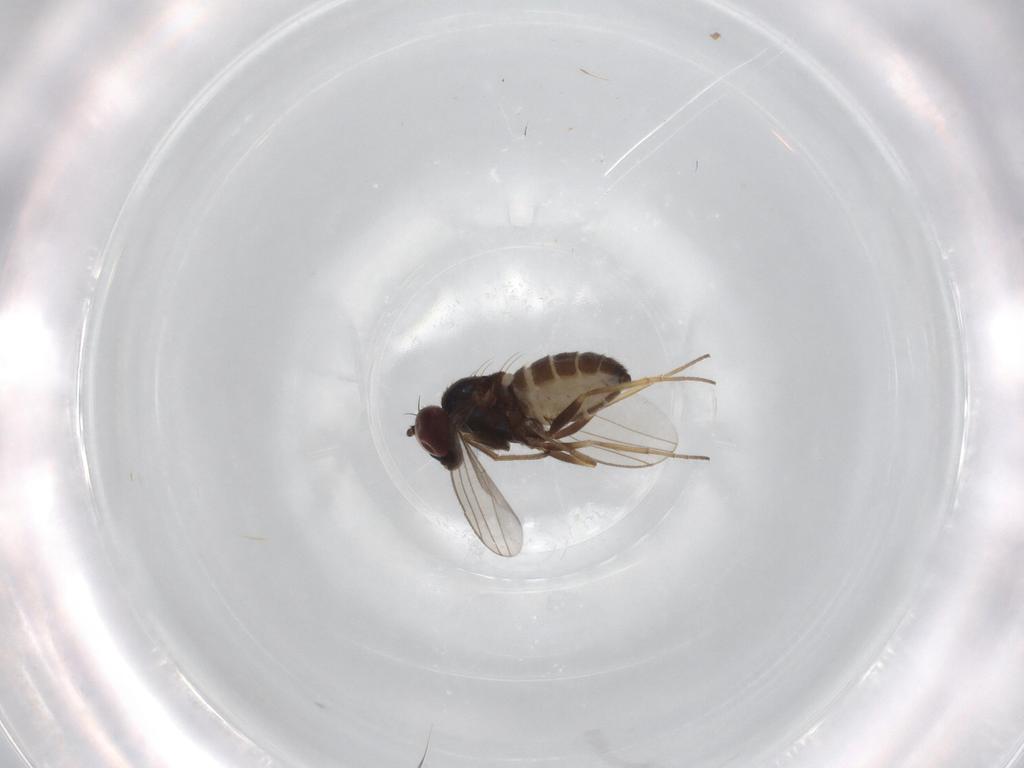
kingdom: Animalia
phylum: Arthropoda
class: Insecta
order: Diptera
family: Dolichopodidae
